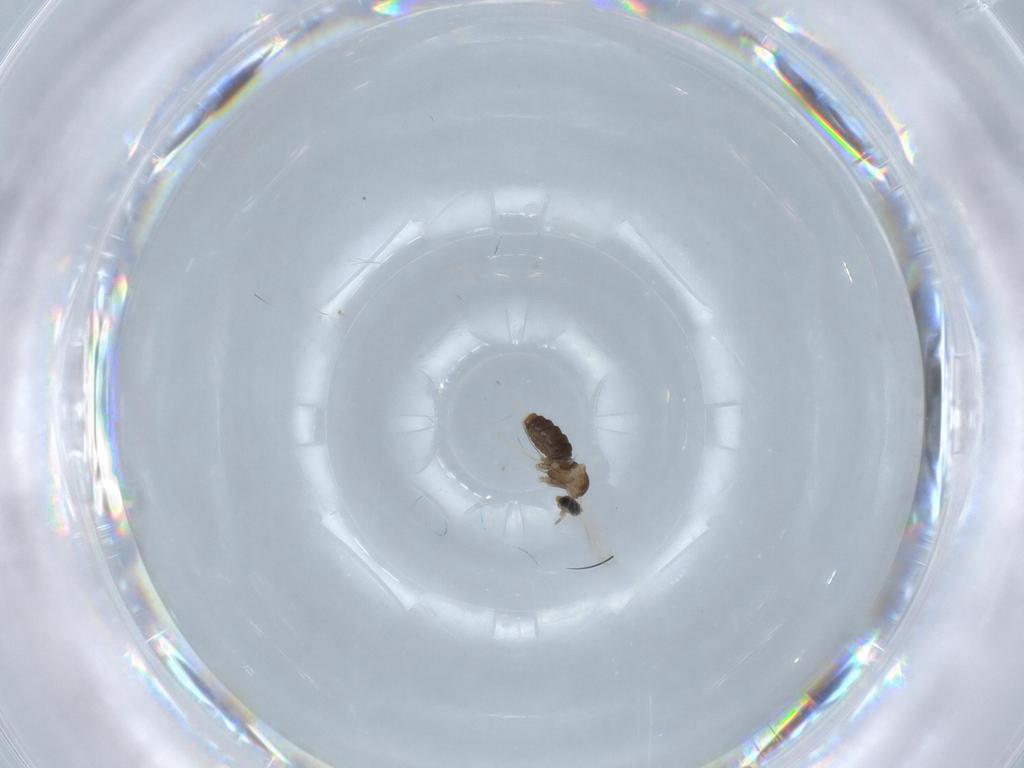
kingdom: Animalia
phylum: Arthropoda
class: Insecta
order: Diptera
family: Cecidomyiidae
